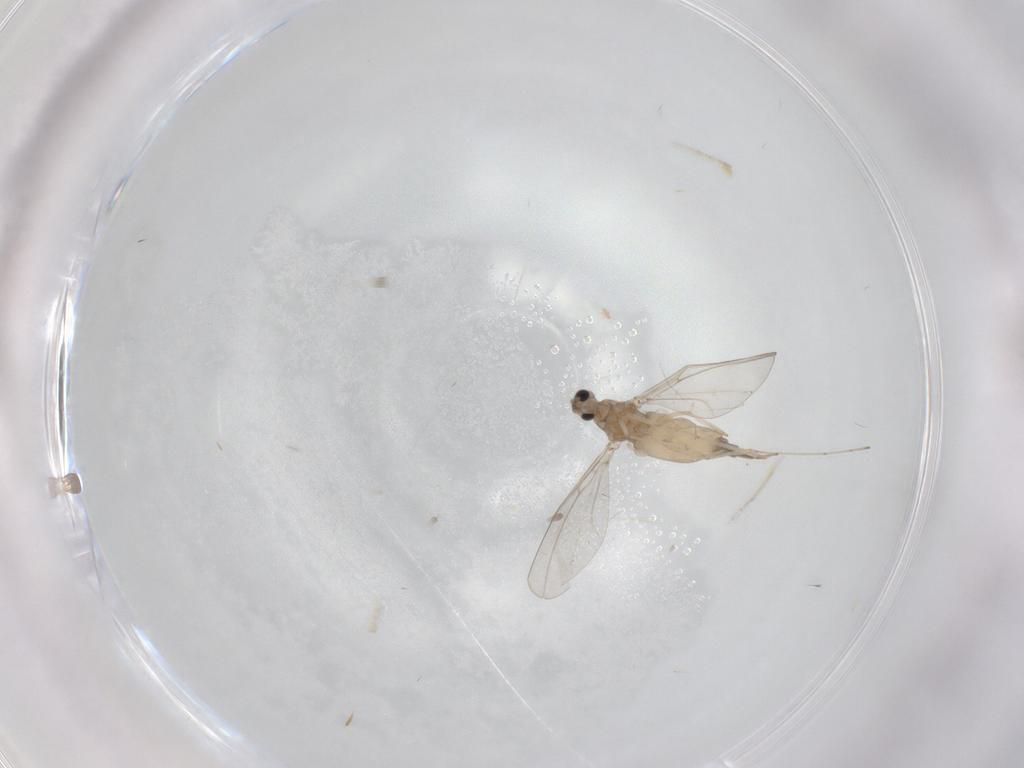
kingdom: Animalia
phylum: Arthropoda
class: Insecta
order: Diptera
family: Cecidomyiidae
